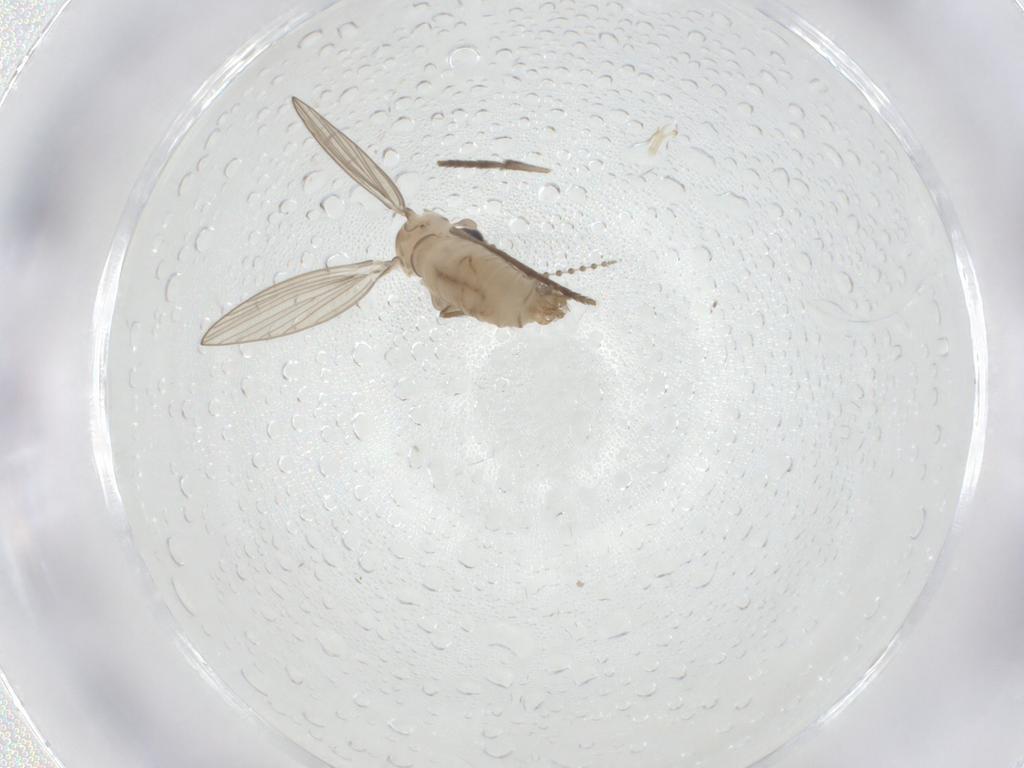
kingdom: Animalia
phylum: Arthropoda
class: Insecta
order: Diptera
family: Psychodidae
